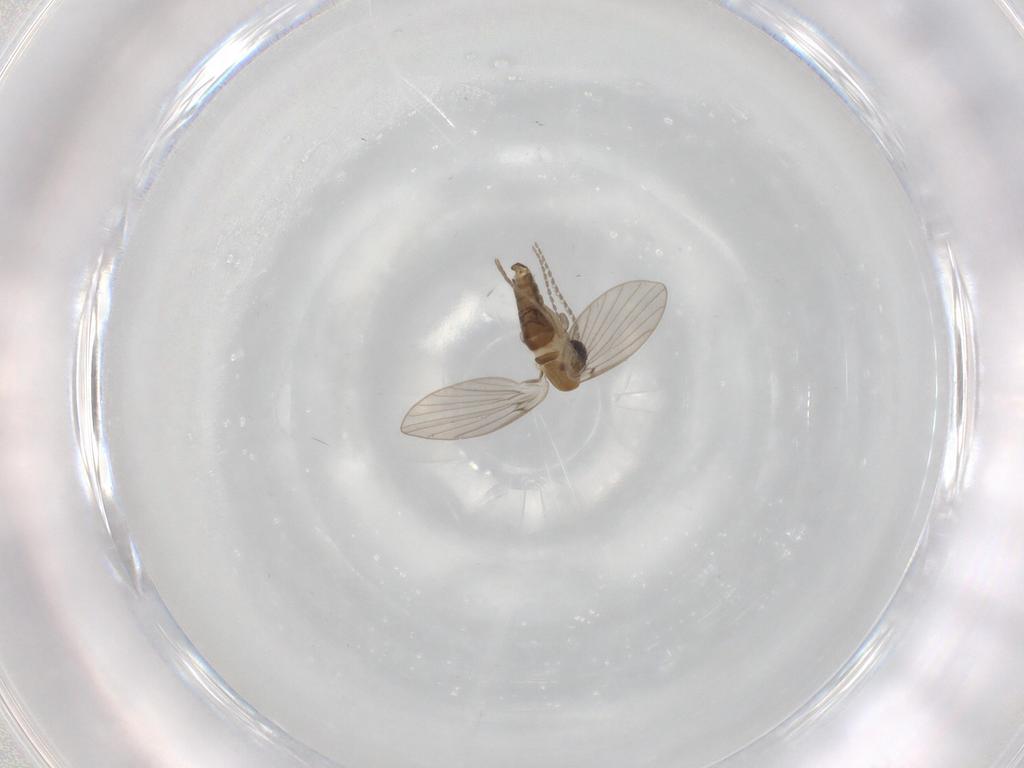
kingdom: Animalia
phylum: Arthropoda
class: Insecta
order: Diptera
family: Psychodidae
